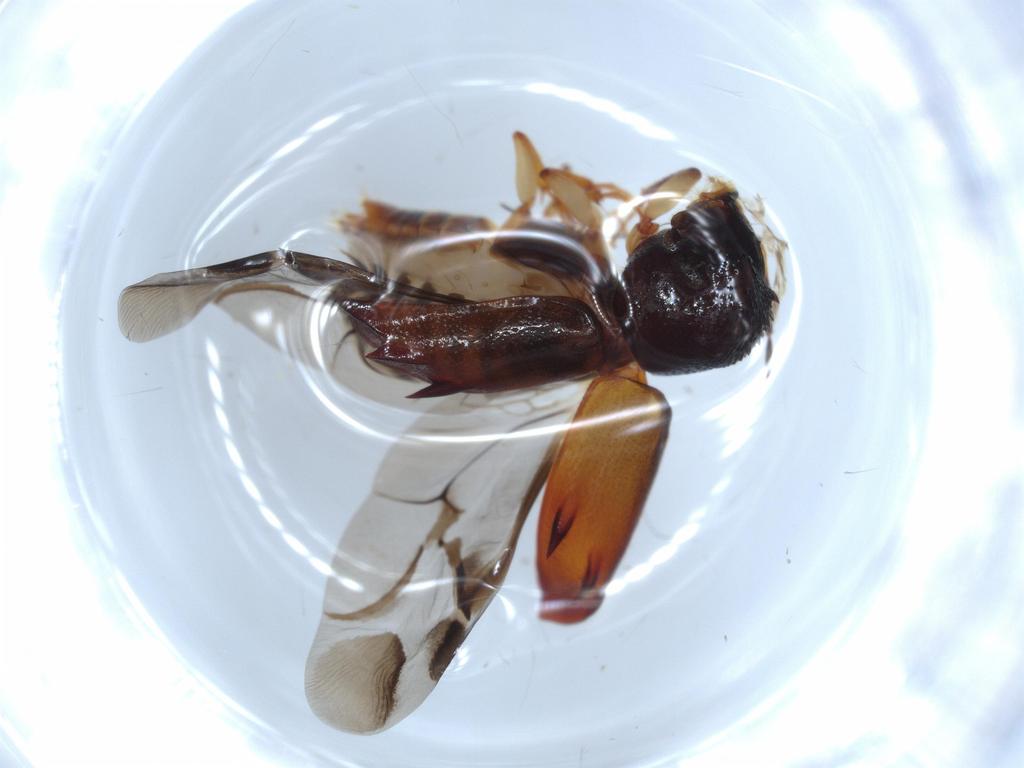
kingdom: Animalia
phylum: Arthropoda
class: Insecta
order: Coleoptera
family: Bostrichidae
